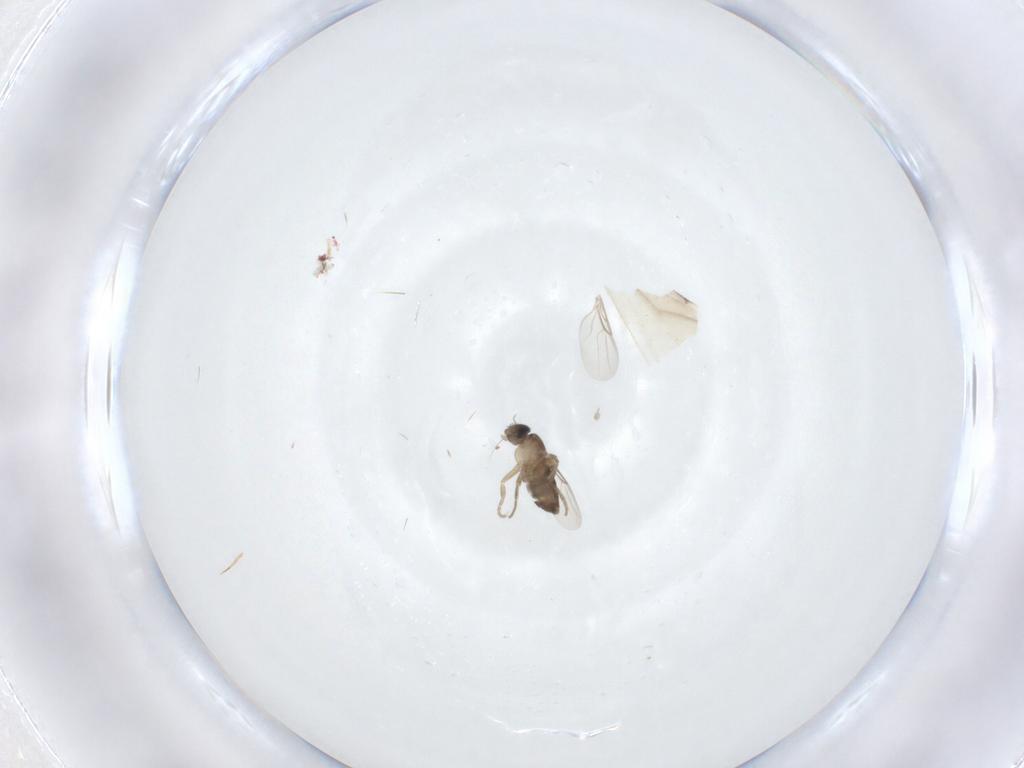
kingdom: Animalia
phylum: Arthropoda
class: Insecta
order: Diptera
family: Phoridae
